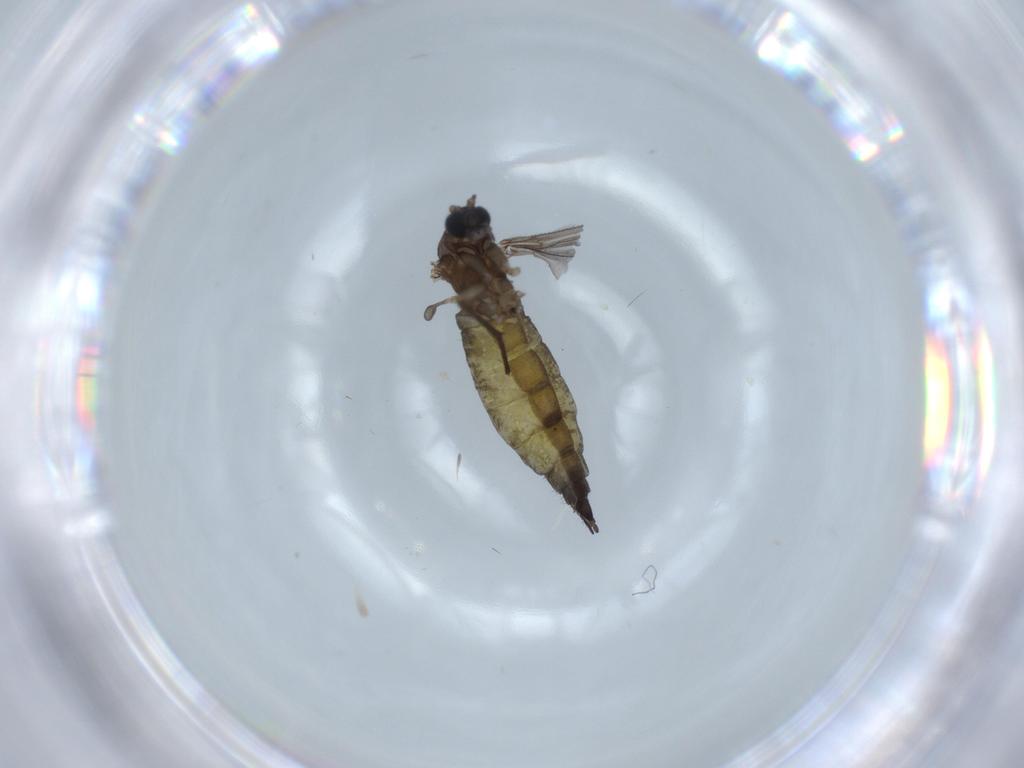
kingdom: Animalia
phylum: Arthropoda
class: Insecta
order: Diptera
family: Sciaridae
